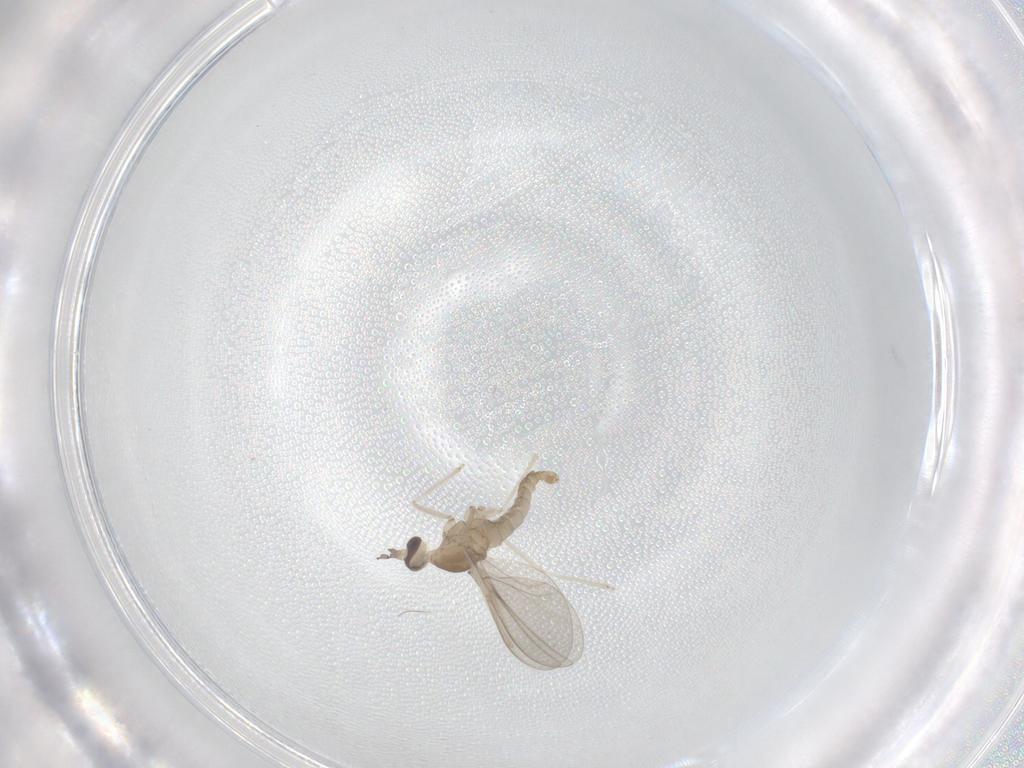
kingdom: Animalia
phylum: Arthropoda
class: Insecta
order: Diptera
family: Cecidomyiidae
